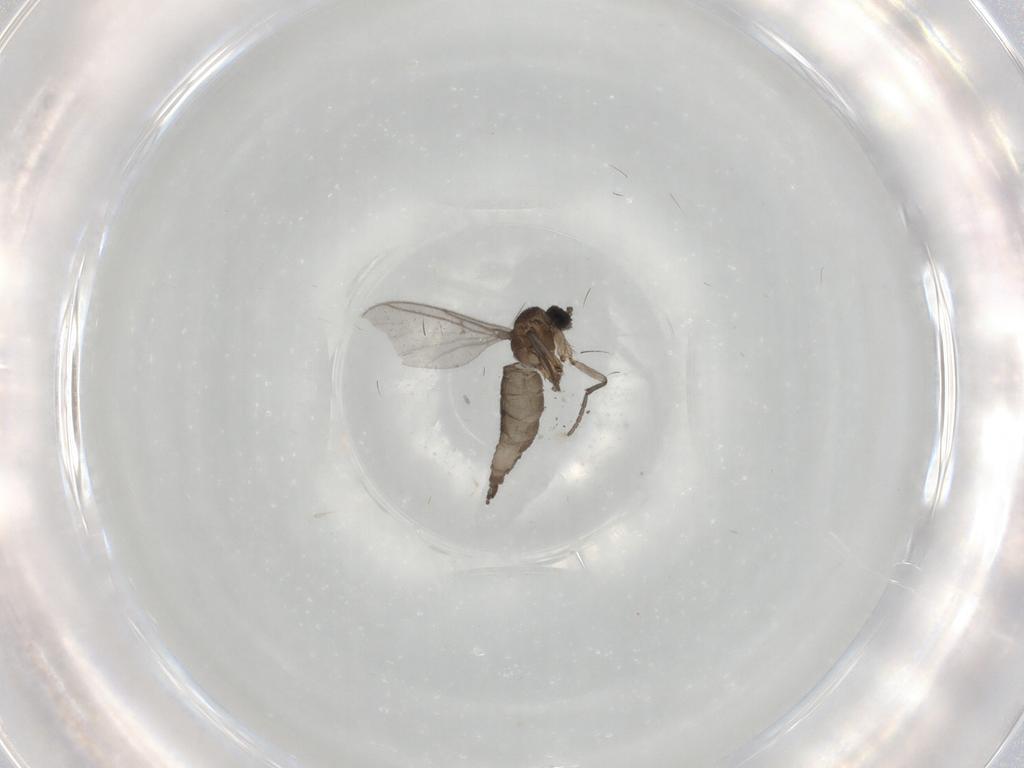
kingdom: Animalia
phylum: Arthropoda
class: Insecta
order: Diptera
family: Sciaridae
